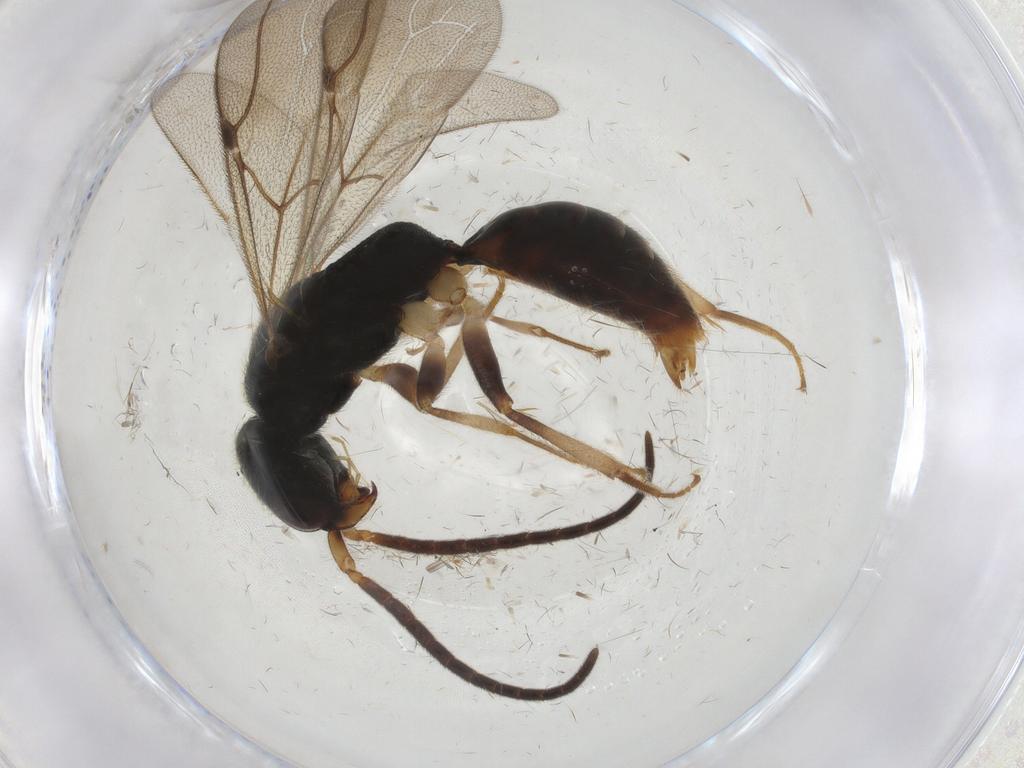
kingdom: Animalia
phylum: Arthropoda
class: Insecta
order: Hymenoptera
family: Bethylidae
